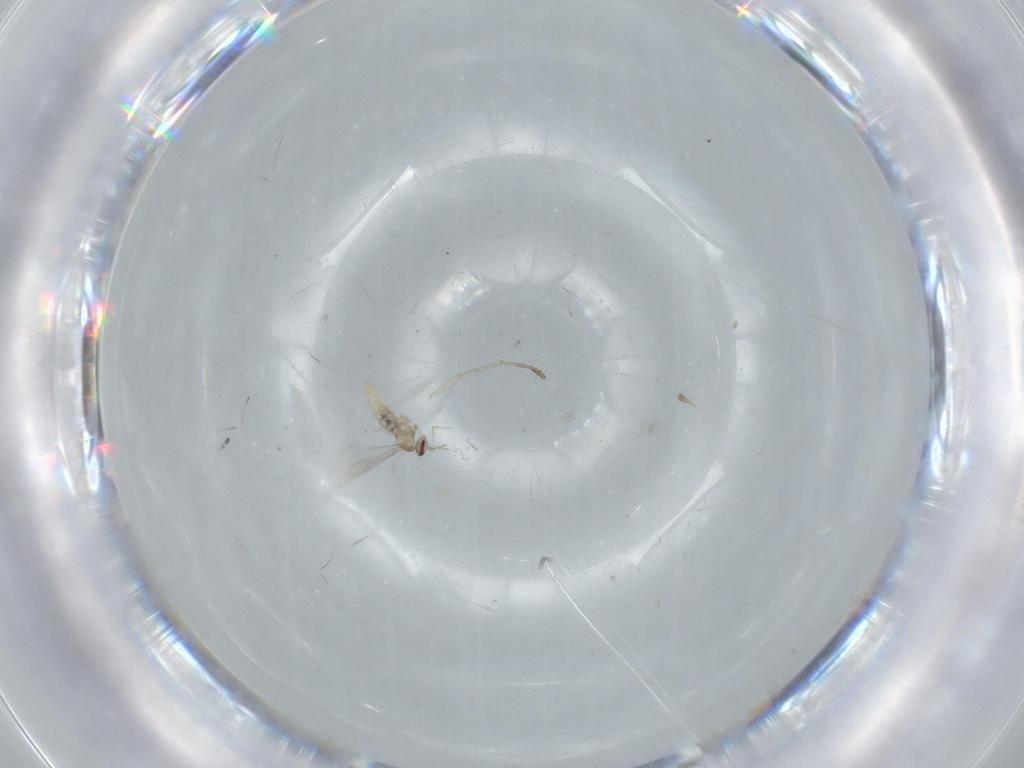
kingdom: Animalia
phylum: Arthropoda
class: Insecta
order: Diptera
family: Cecidomyiidae
